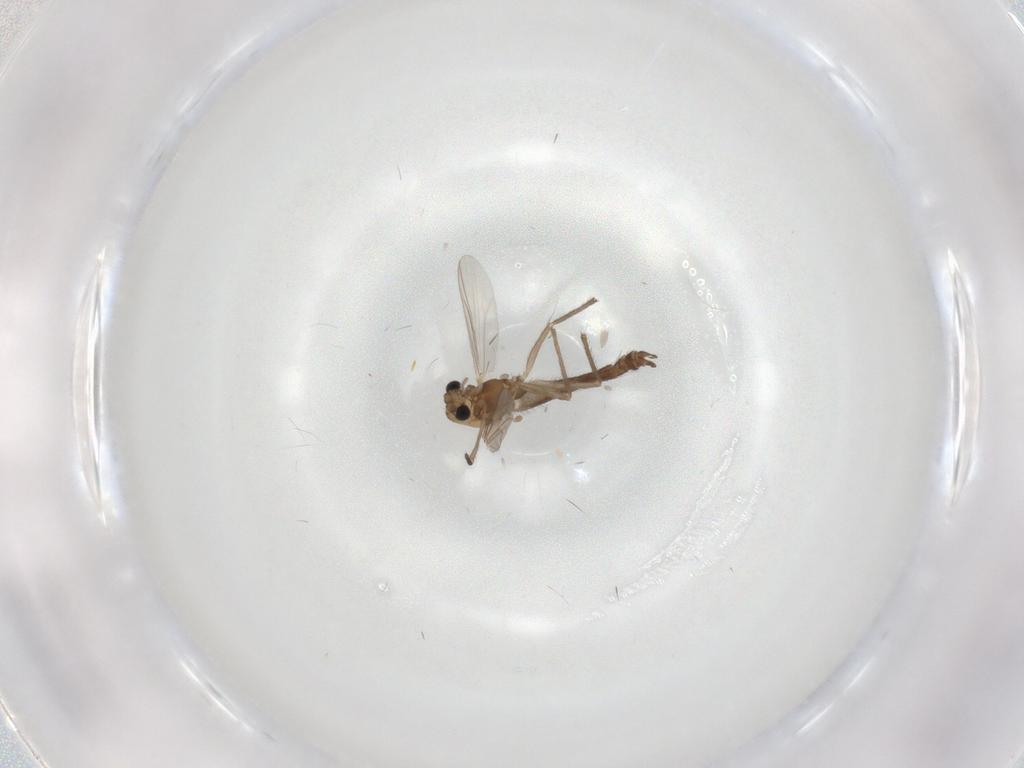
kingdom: Animalia
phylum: Arthropoda
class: Insecta
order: Diptera
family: Chironomidae
